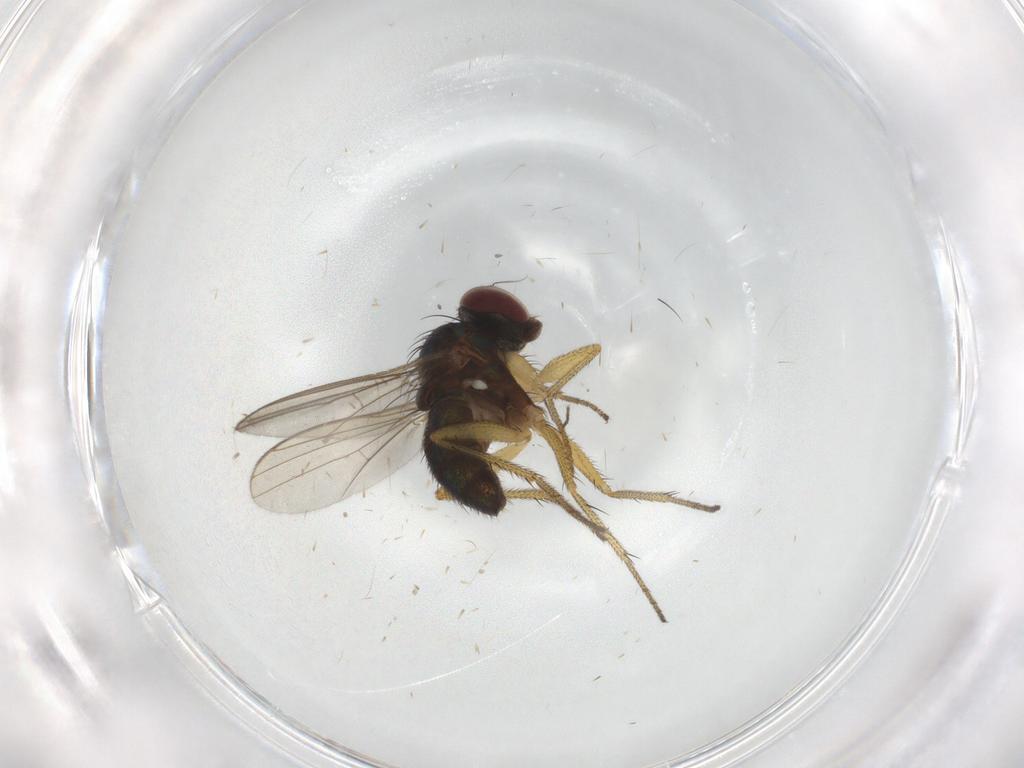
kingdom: Animalia
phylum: Arthropoda
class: Insecta
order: Diptera
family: Dolichopodidae
